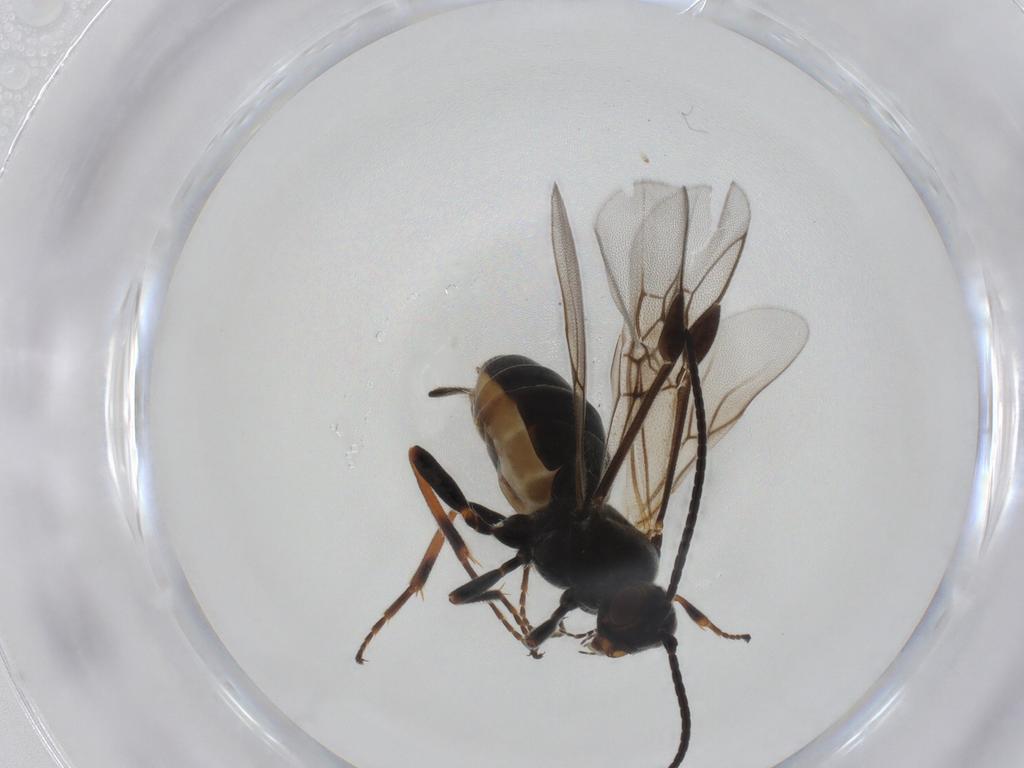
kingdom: Animalia
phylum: Arthropoda
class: Insecta
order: Hymenoptera
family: Braconidae
